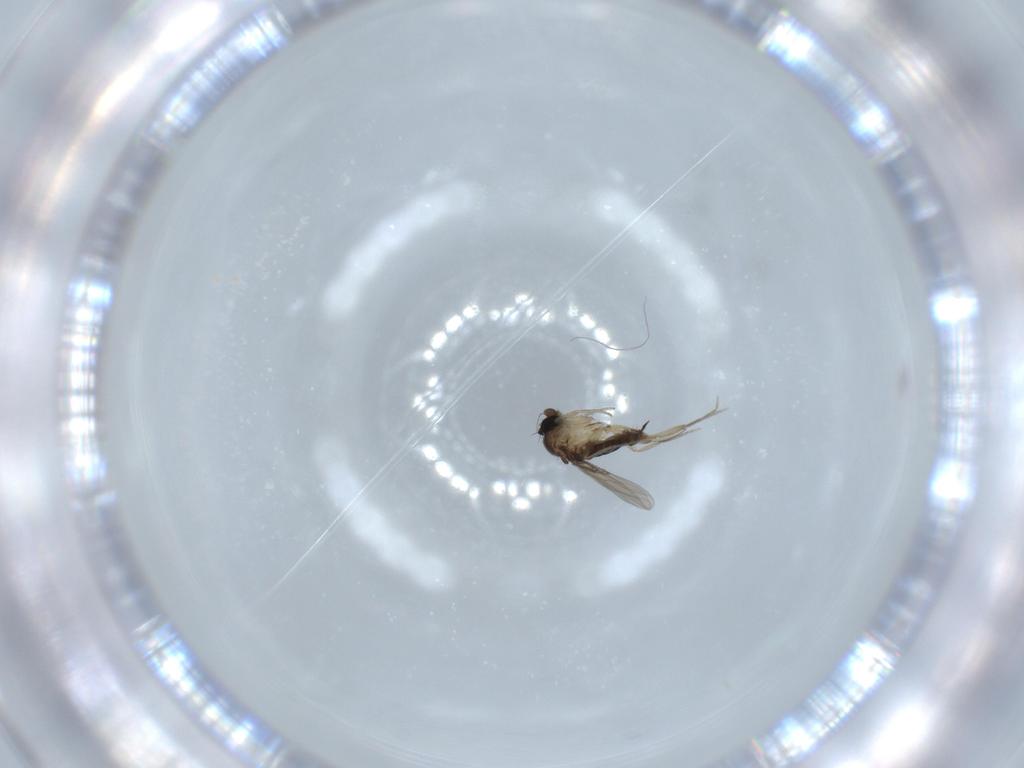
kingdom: Animalia
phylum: Arthropoda
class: Insecta
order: Diptera
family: Phoridae
